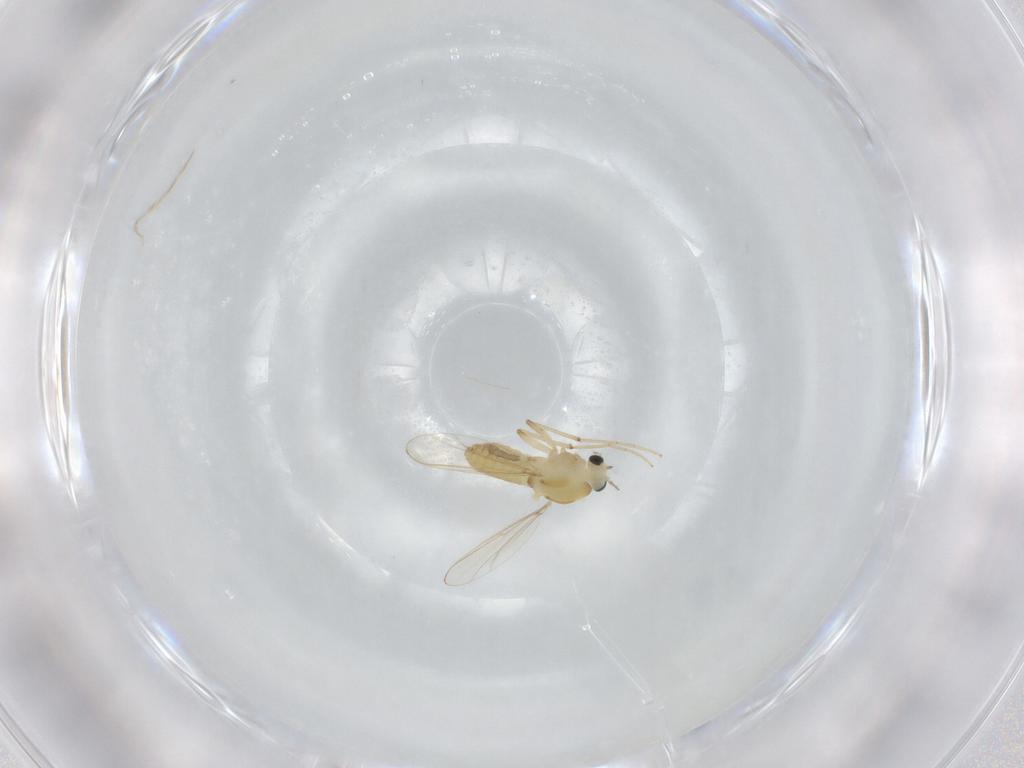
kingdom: Animalia
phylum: Arthropoda
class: Insecta
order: Diptera
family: Chironomidae
